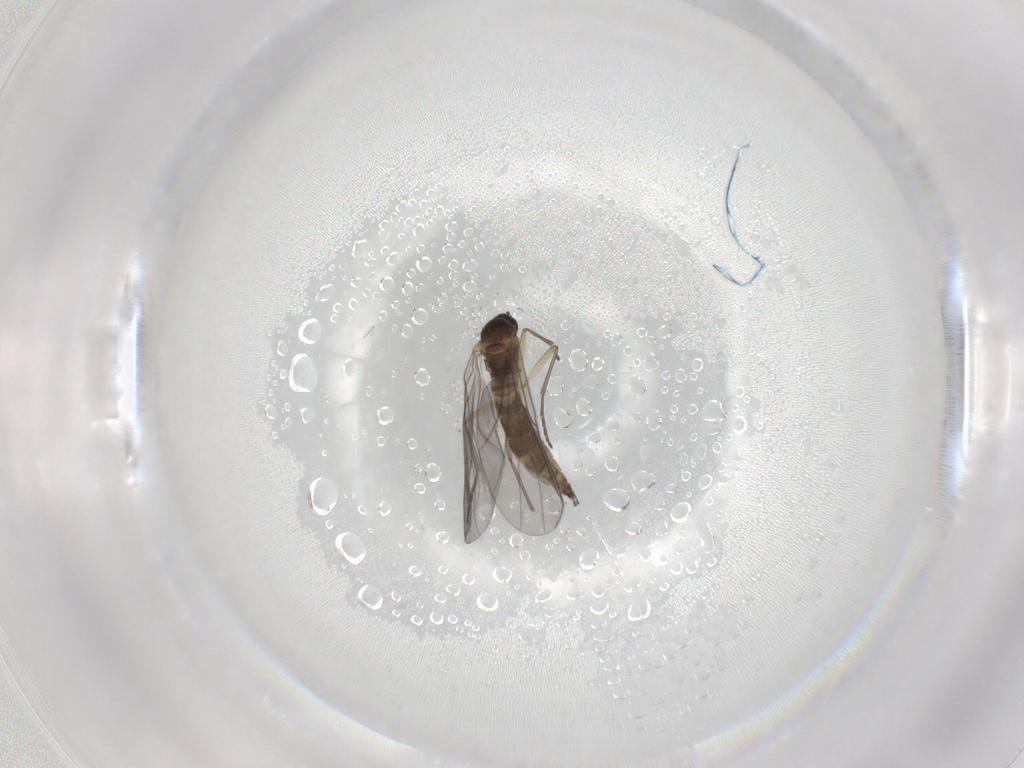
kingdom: Animalia
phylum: Arthropoda
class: Insecta
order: Diptera
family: Sciaridae
